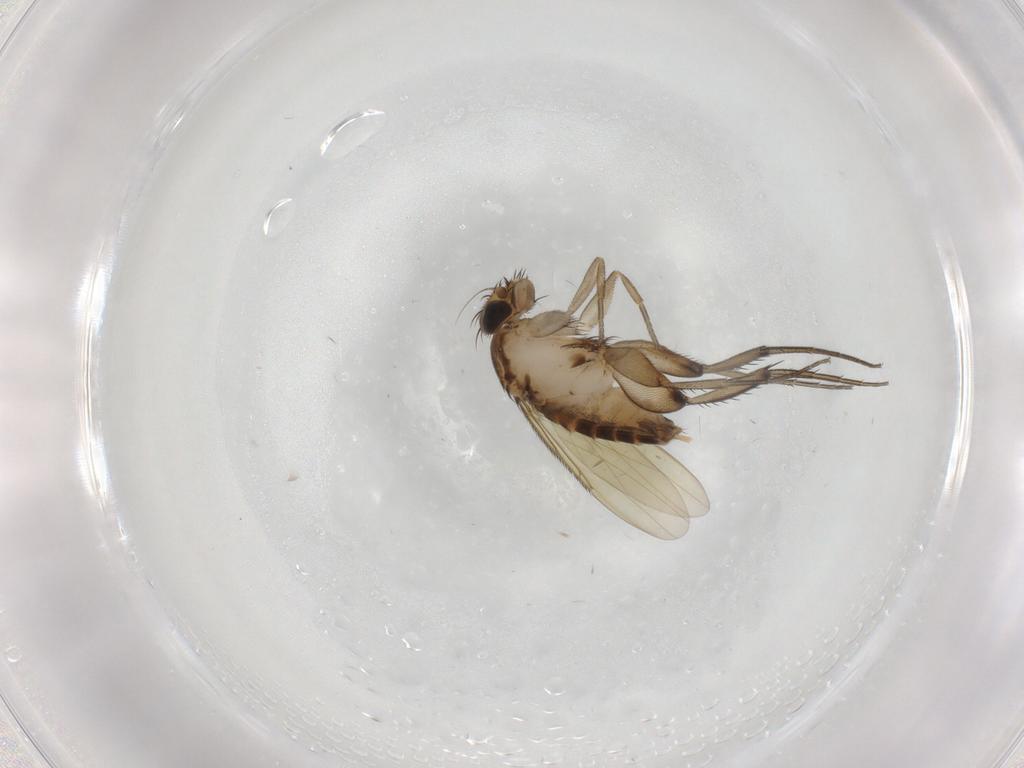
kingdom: Animalia
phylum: Arthropoda
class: Insecta
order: Diptera
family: Phoridae
